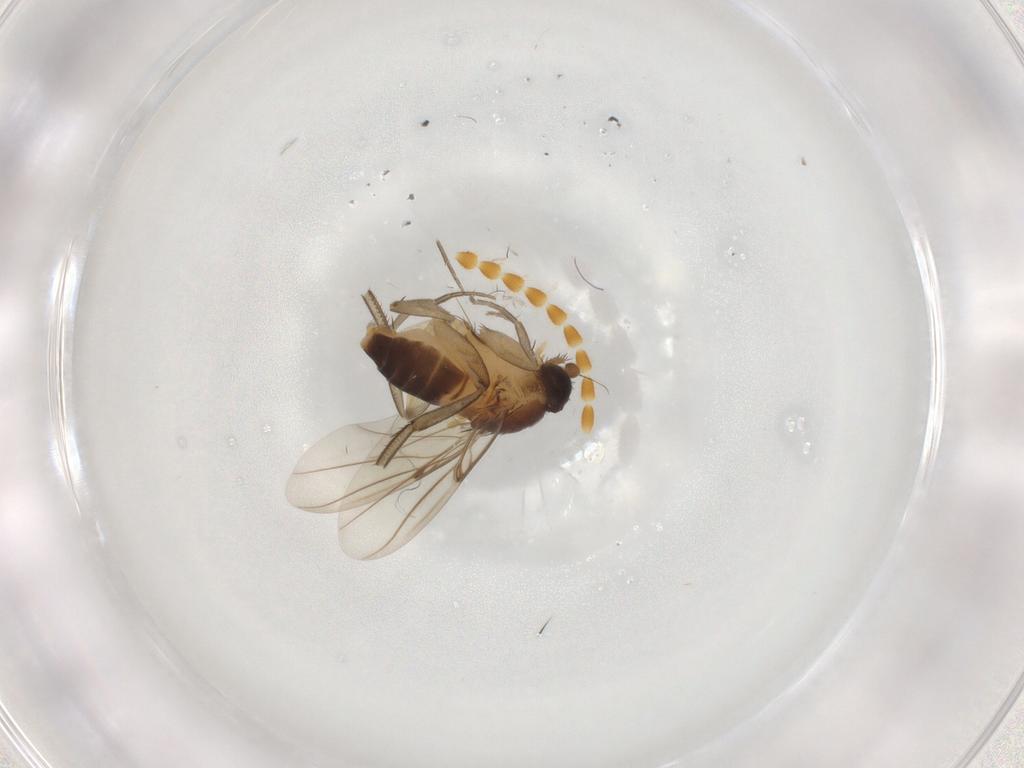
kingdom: Animalia
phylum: Arthropoda
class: Insecta
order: Diptera
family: Phoridae
